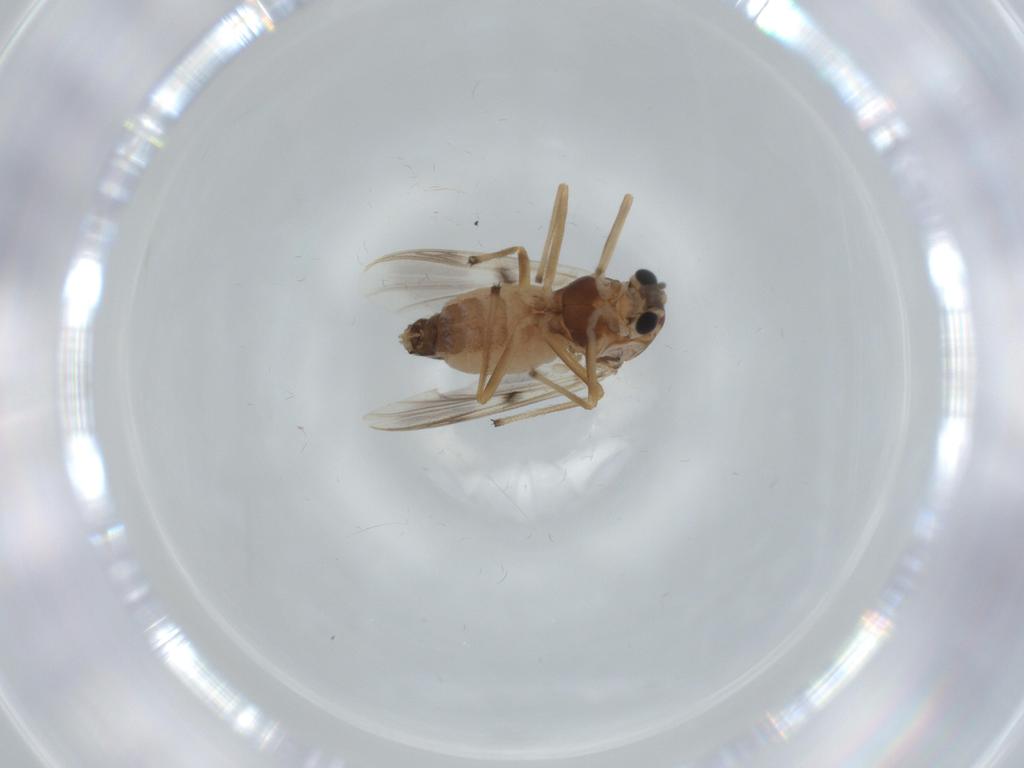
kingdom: Animalia
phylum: Arthropoda
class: Insecta
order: Diptera
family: Chironomidae
